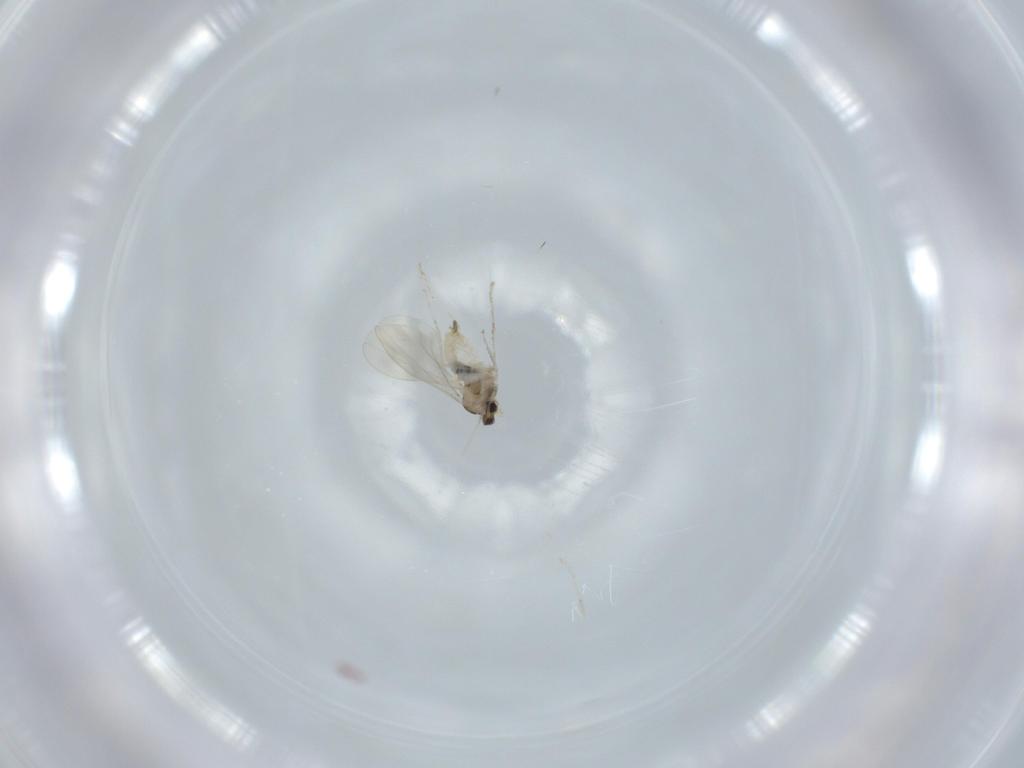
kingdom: Animalia
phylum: Arthropoda
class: Insecta
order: Diptera
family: Cecidomyiidae
